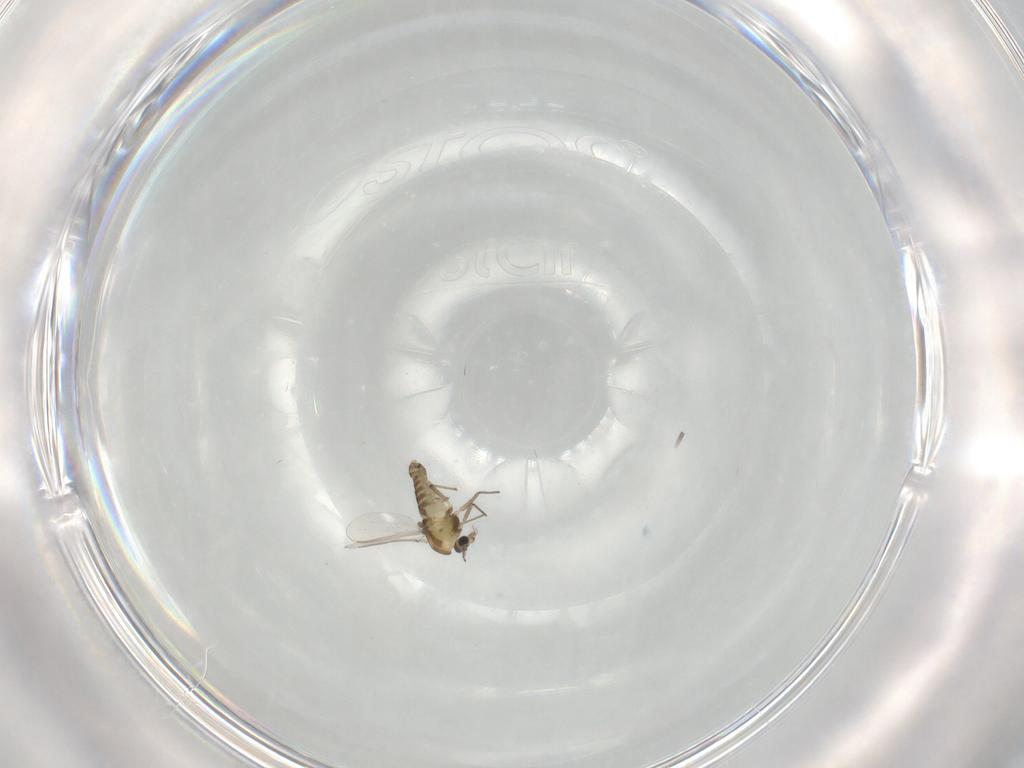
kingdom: Animalia
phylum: Arthropoda
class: Insecta
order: Diptera
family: Chironomidae
